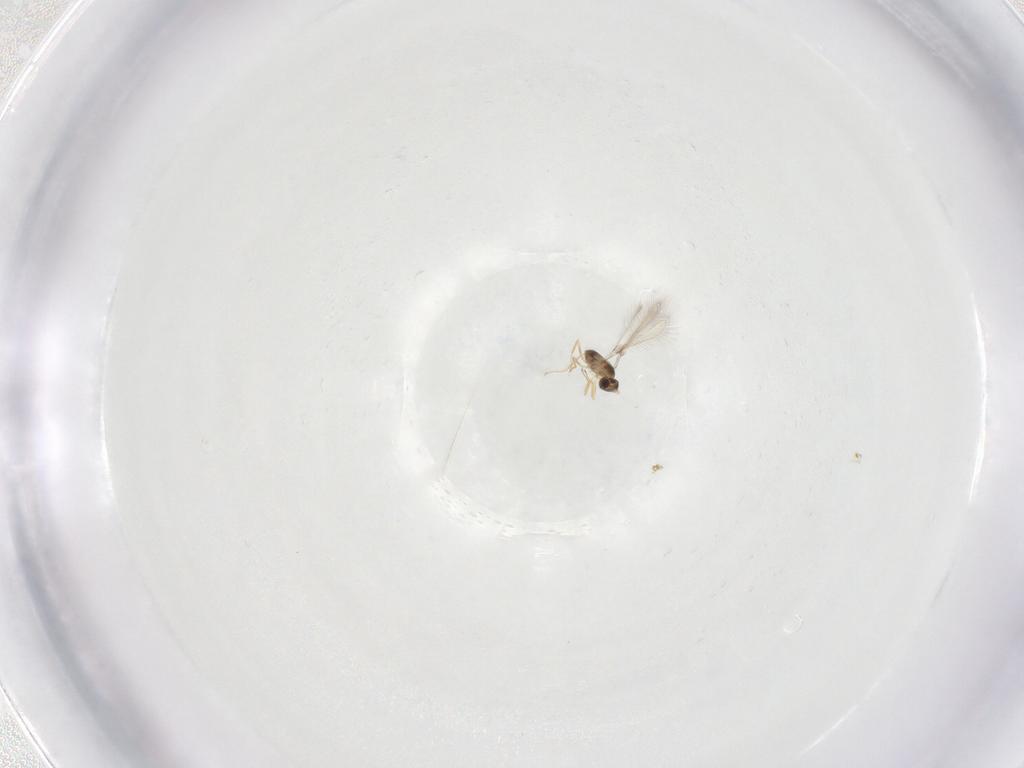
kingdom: Animalia
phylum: Arthropoda
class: Insecta
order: Hymenoptera
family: Mymaridae
